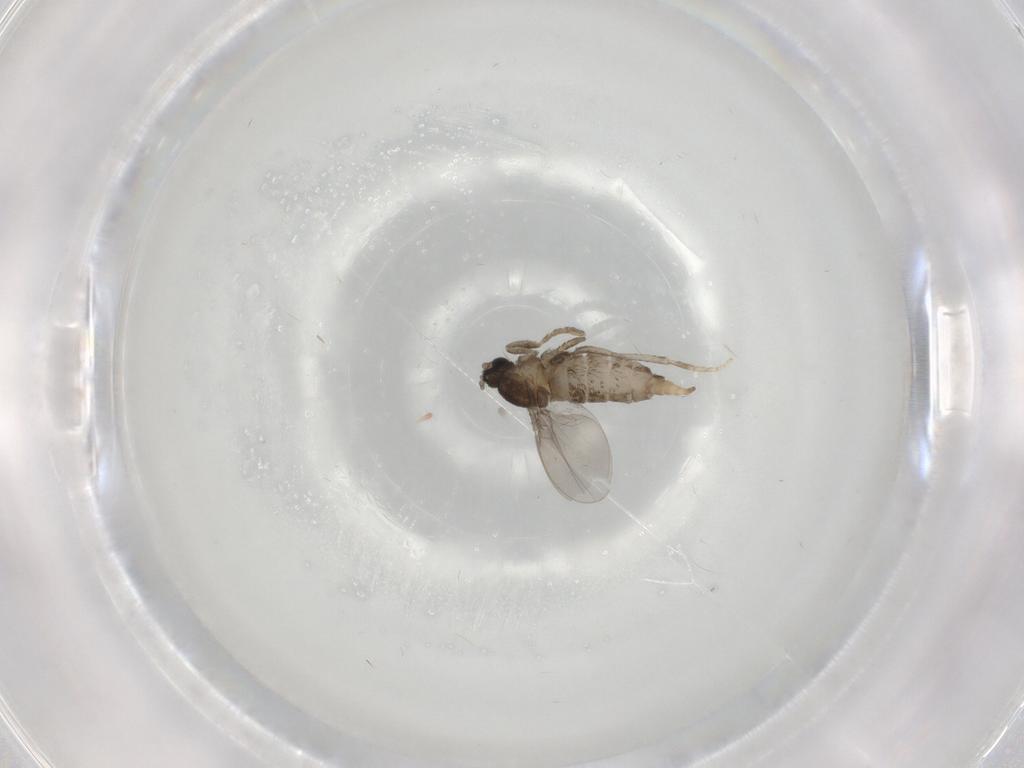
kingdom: Animalia
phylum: Arthropoda
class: Insecta
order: Diptera
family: Cecidomyiidae
